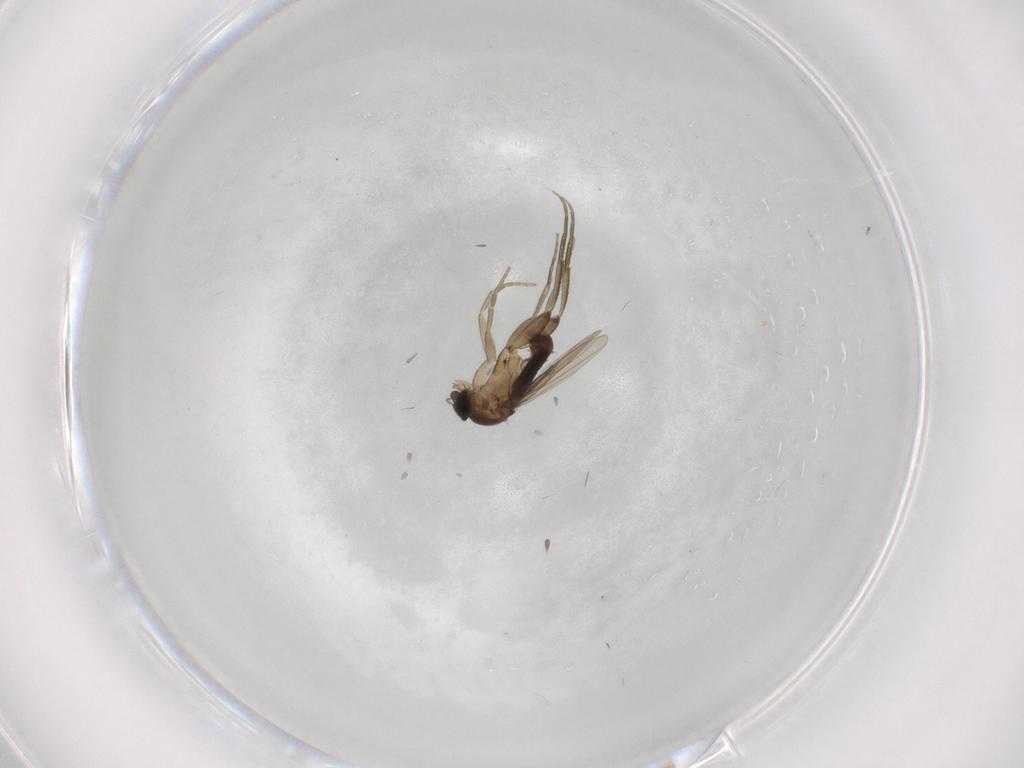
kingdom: Animalia
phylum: Arthropoda
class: Insecta
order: Diptera
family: Phoridae
